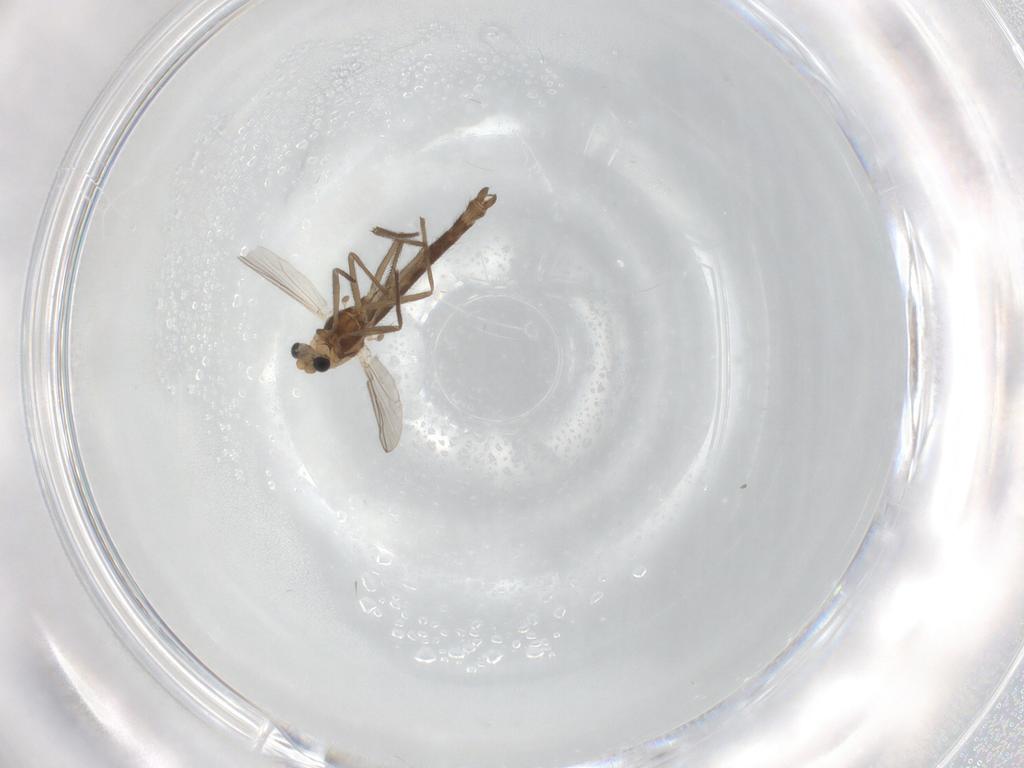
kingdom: Animalia
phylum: Arthropoda
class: Insecta
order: Diptera
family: Chironomidae
